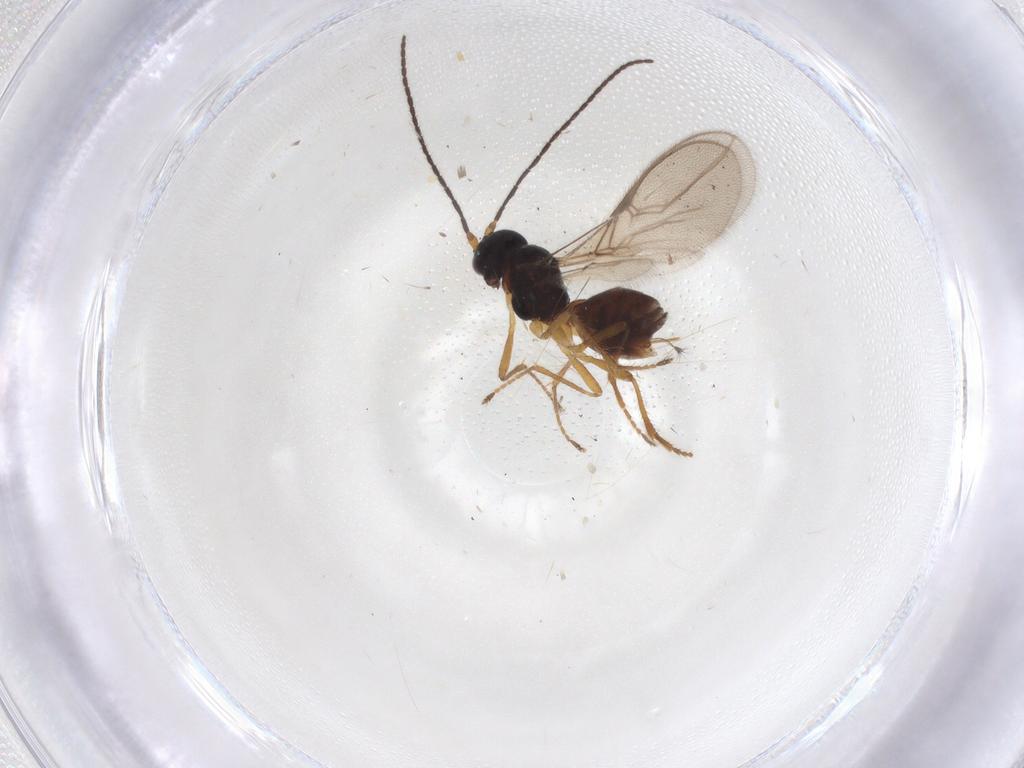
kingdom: Animalia
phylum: Arthropoda
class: Insecta
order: Hymenoptera
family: Braconidae
